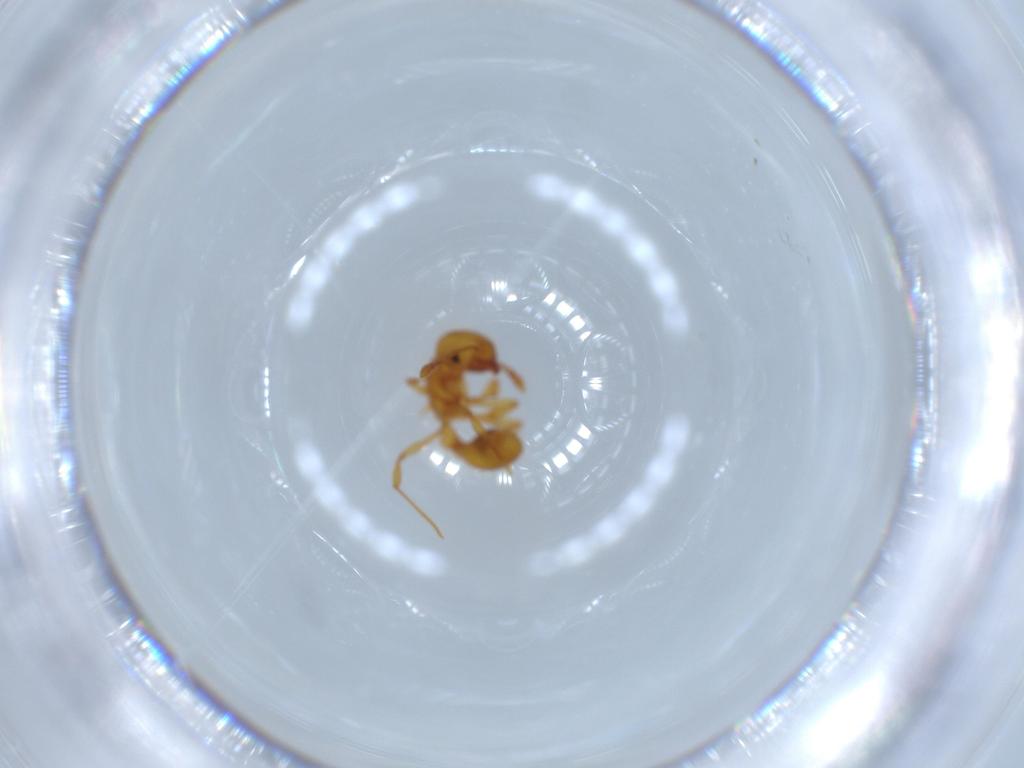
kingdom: Animalia
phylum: Arthropoda
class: Insecta
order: Hymenoptera
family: Formicidae
